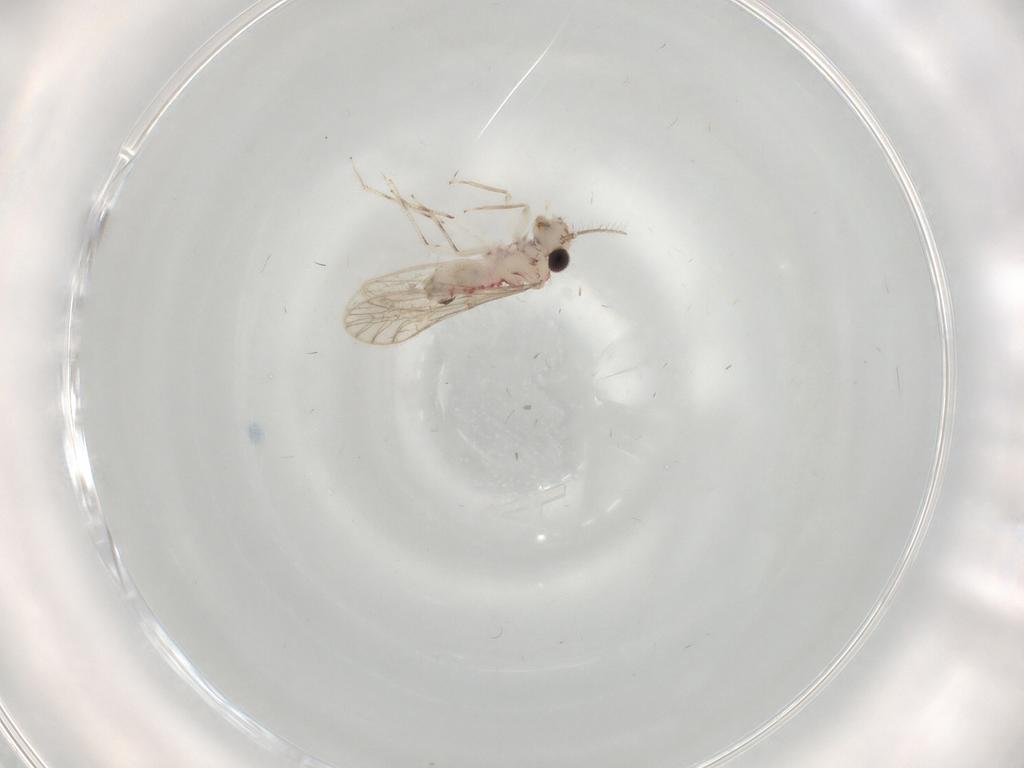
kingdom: Animalia
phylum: Arthropoda
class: Insecta
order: Psocodea
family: Caeciliusidae
